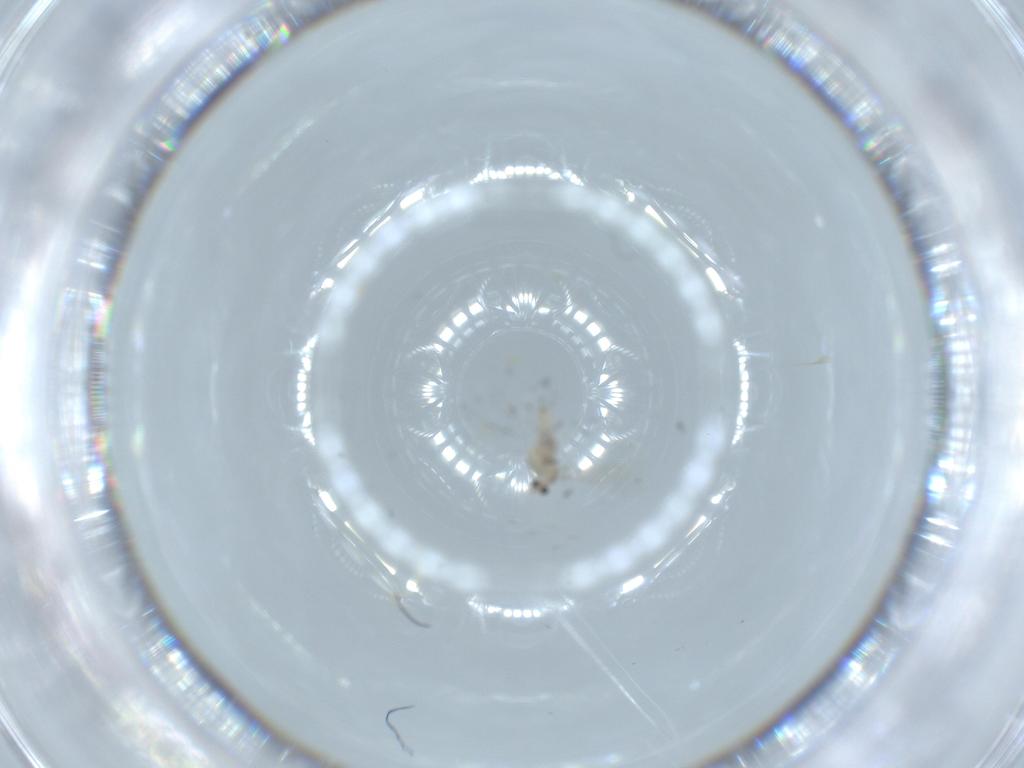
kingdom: Animalia
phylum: Arthropoda
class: Insecta
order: Diptera
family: Cecidomyiidae
